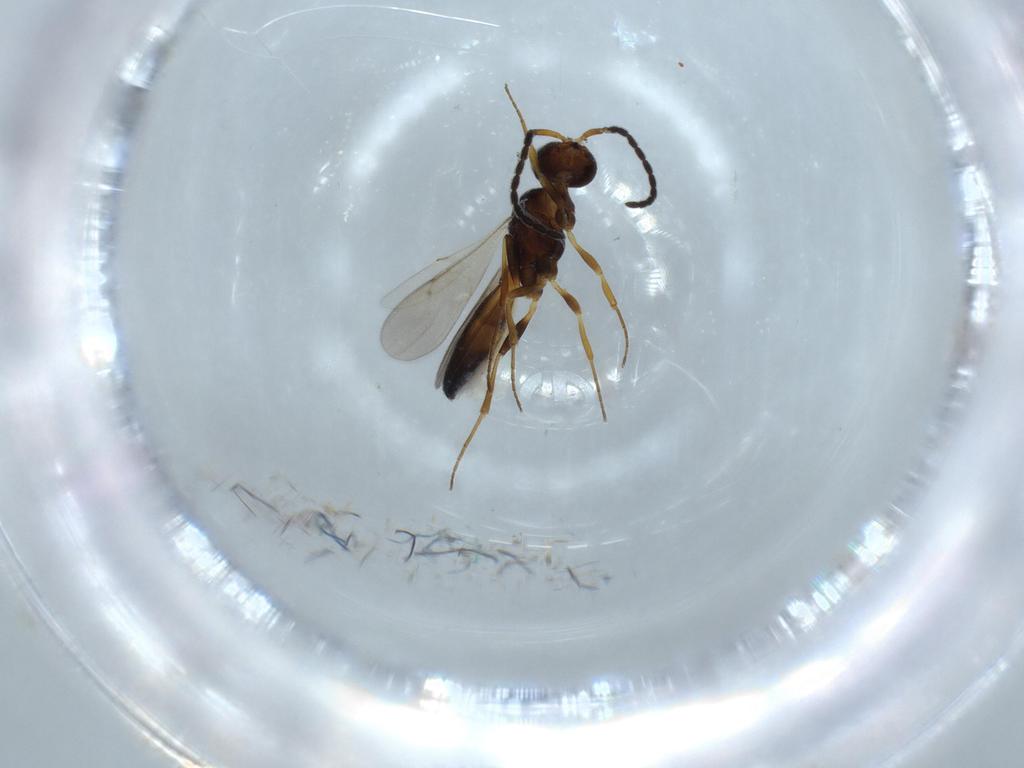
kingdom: Animalia
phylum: Arthropoda
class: Insecta
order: Hymenoptera
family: Scelionidae
